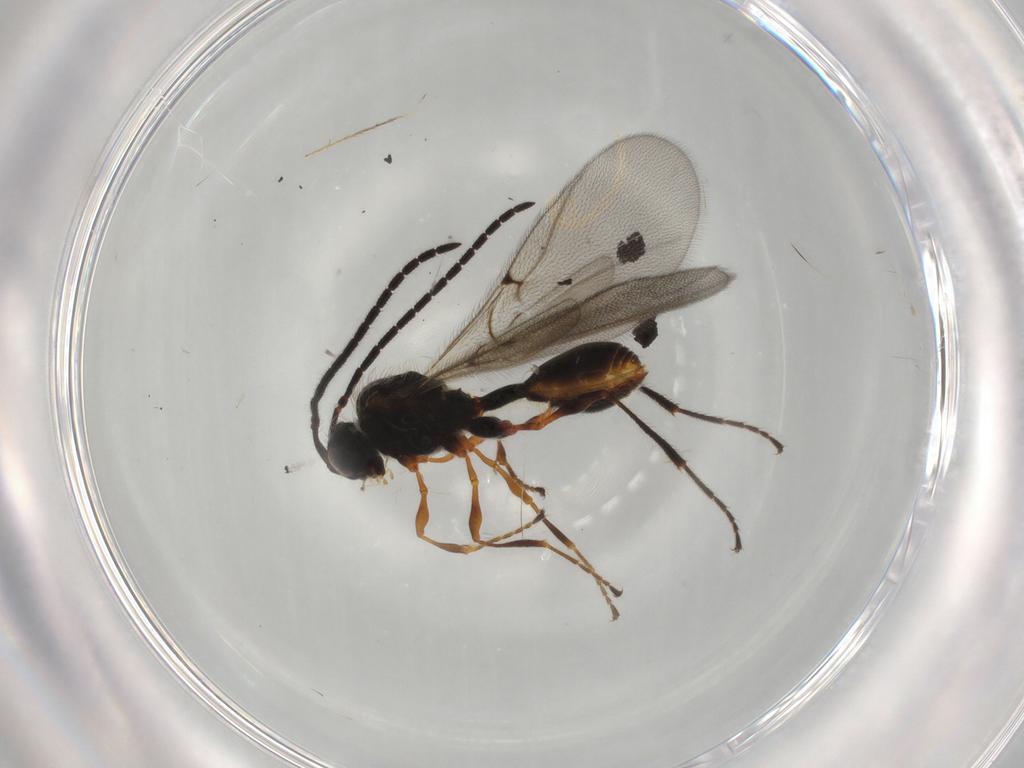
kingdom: Animalia
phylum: Arthropoda
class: Insecta
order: Hymenoptera
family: Diapriidae
